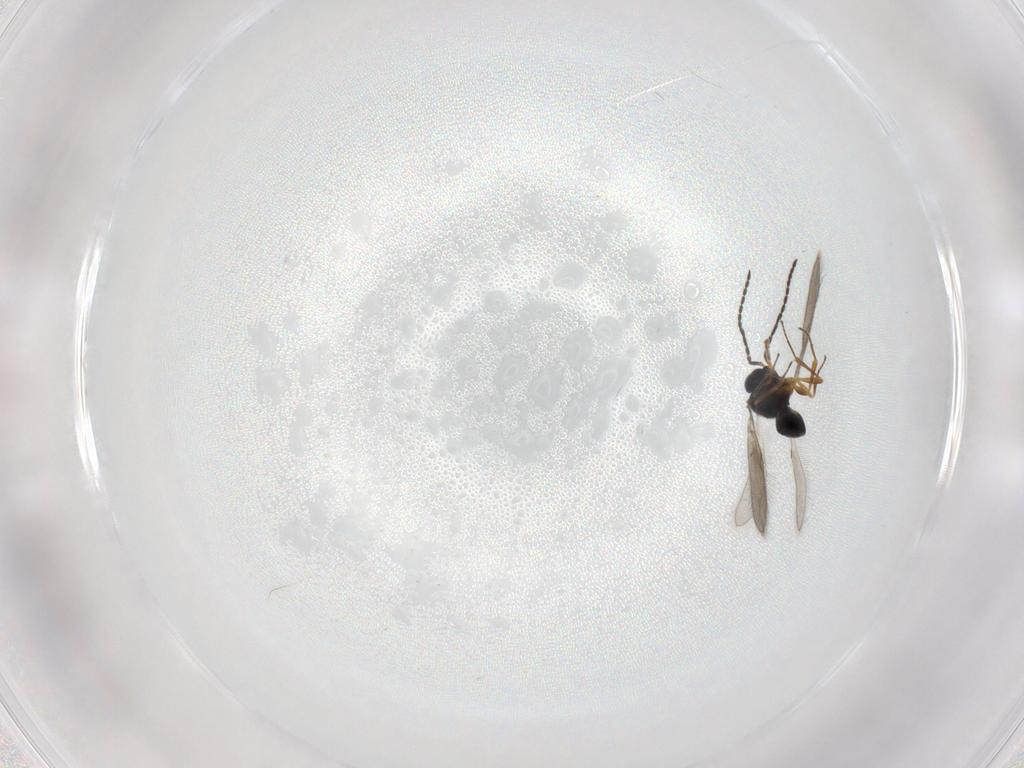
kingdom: Animalia
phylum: Arthropoda
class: Insecta
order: Hymenoptera
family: Scelionidae
